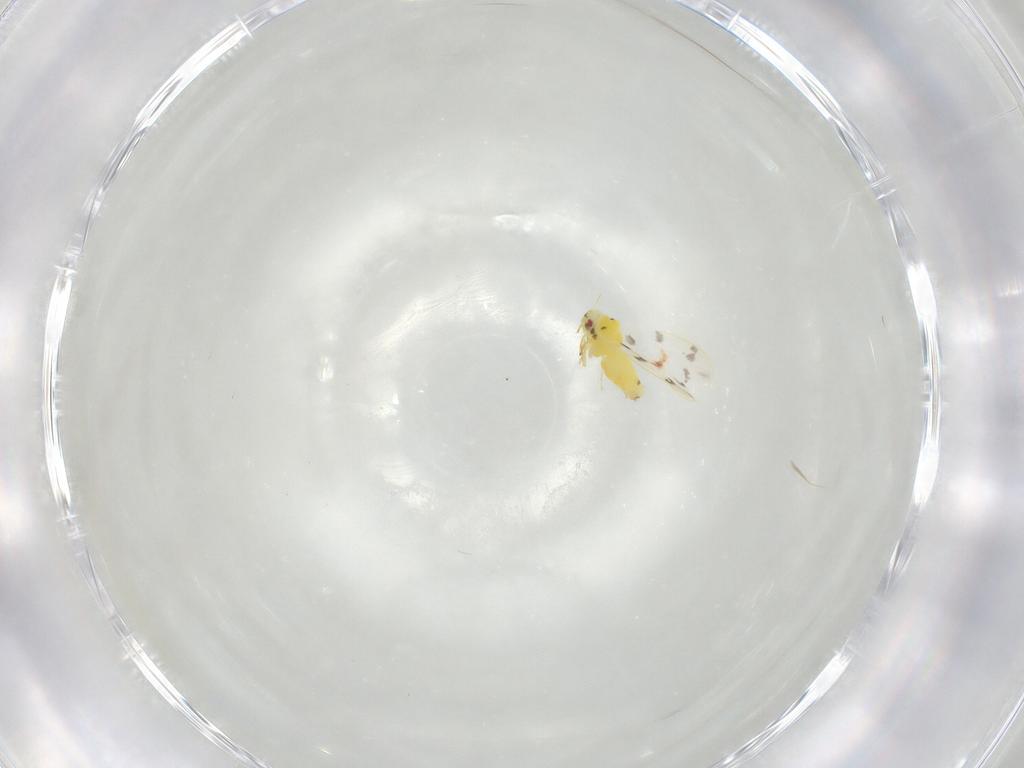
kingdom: Animalia
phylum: Arthropoda
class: Insecta
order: Hemiptera
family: Aleyrodidae
